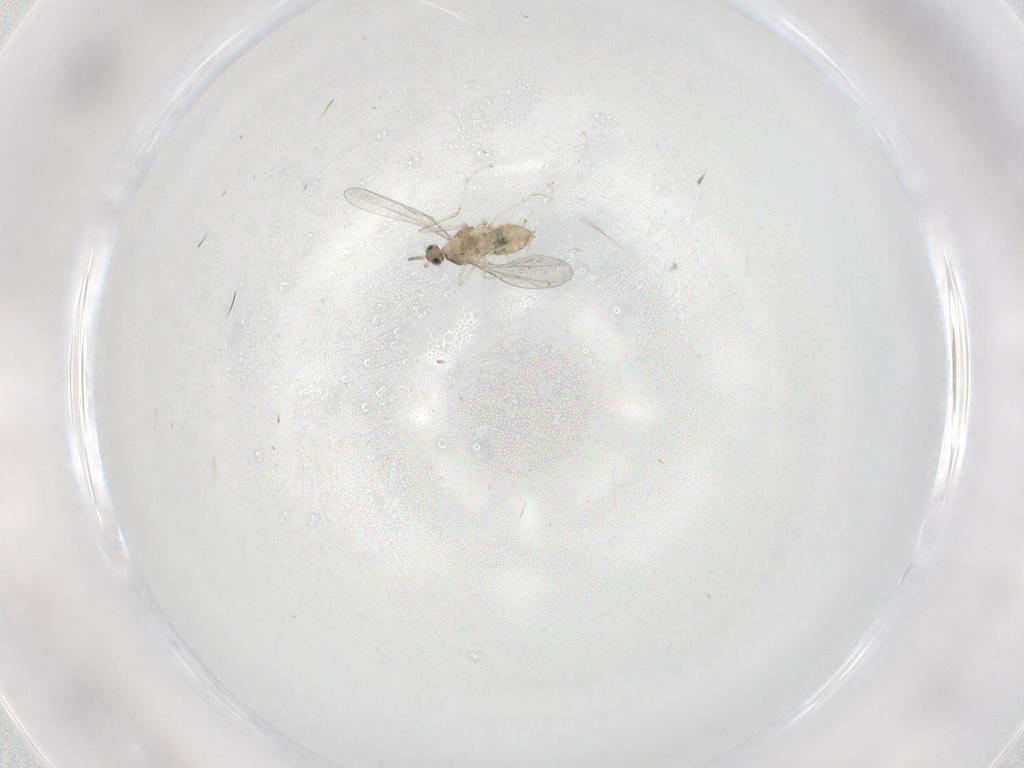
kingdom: Animalia
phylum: Arthropoda
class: Insecta
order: Diptera
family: Cecidomyiidae
